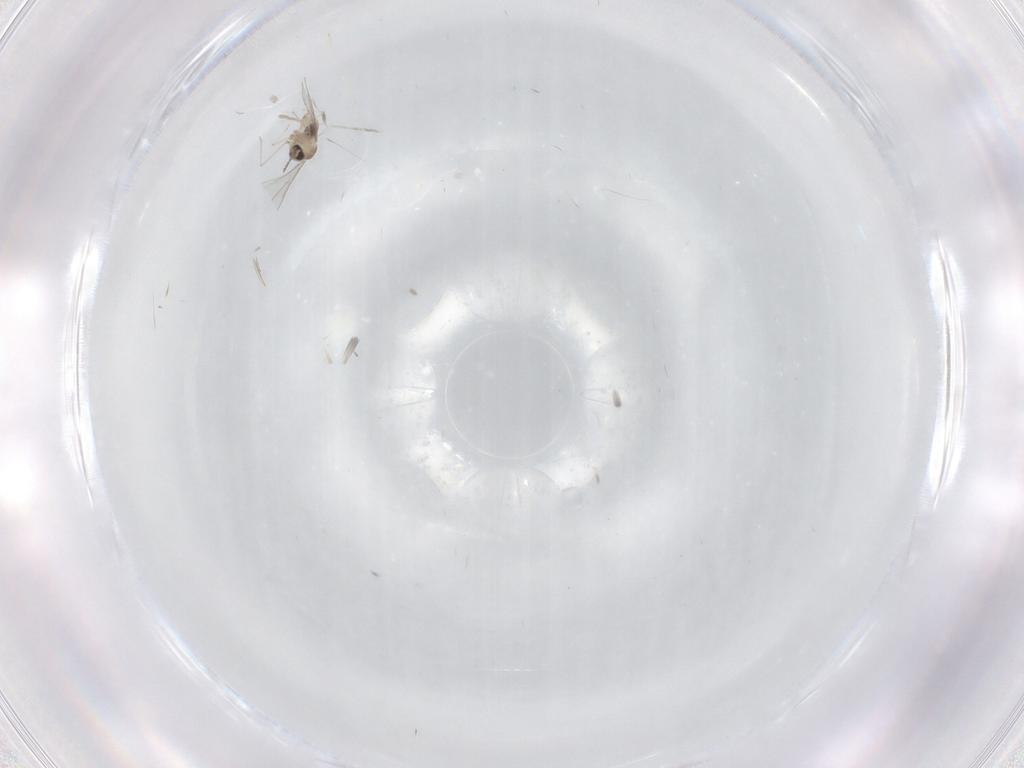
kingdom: Animalia
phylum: Arthropoda
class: Insecta
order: Diptera
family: Cecidomyiidae
